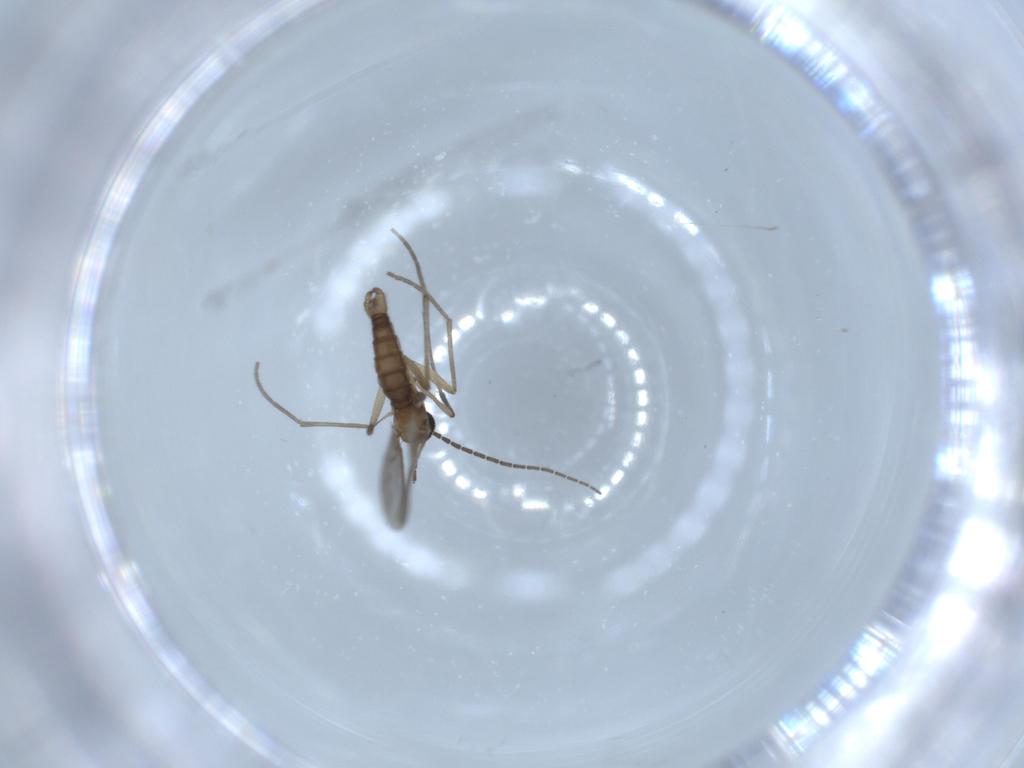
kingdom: Animalia
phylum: Arthropoda
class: Insecta
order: Diptera
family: Sciaridae
